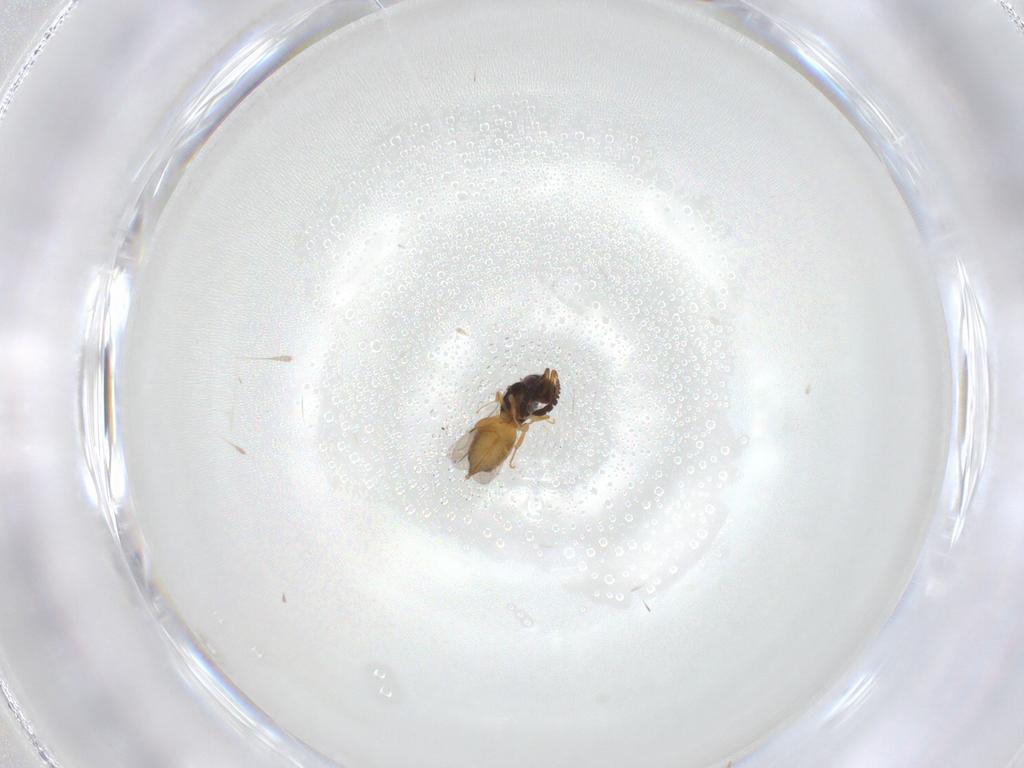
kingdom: Animalia
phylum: Arthropoda
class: Insecta
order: Hymenoptera
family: Ceraphronidae
